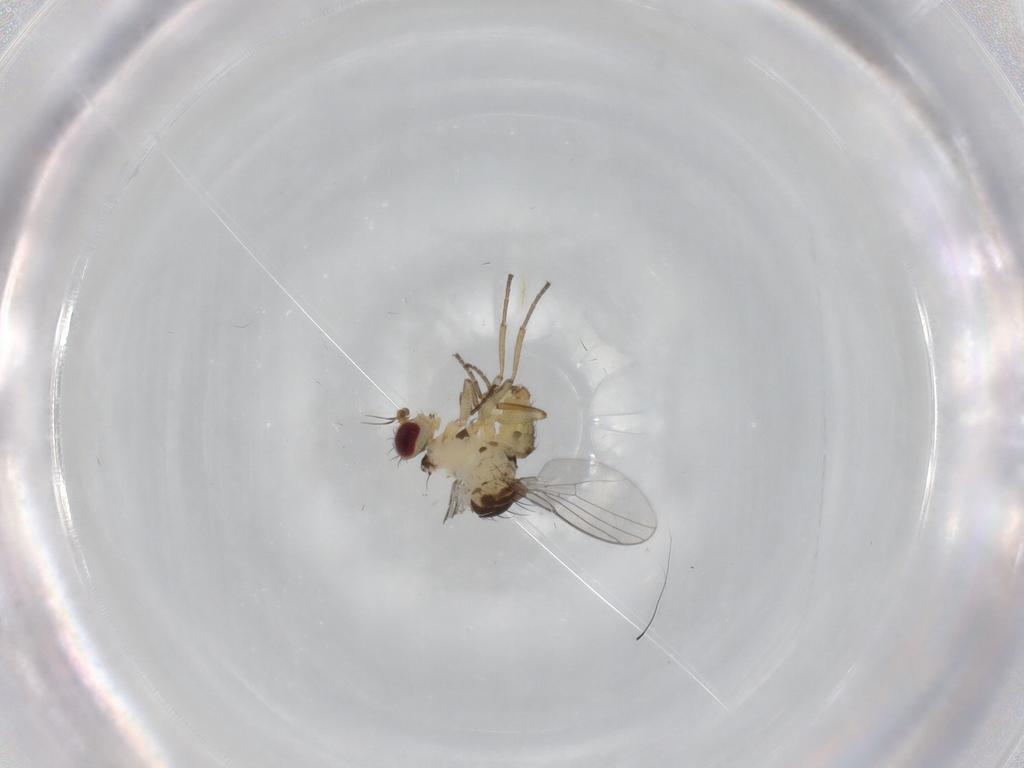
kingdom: Animalia
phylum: Arthropoda
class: Insecta
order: Diptera
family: Agromyzidae
